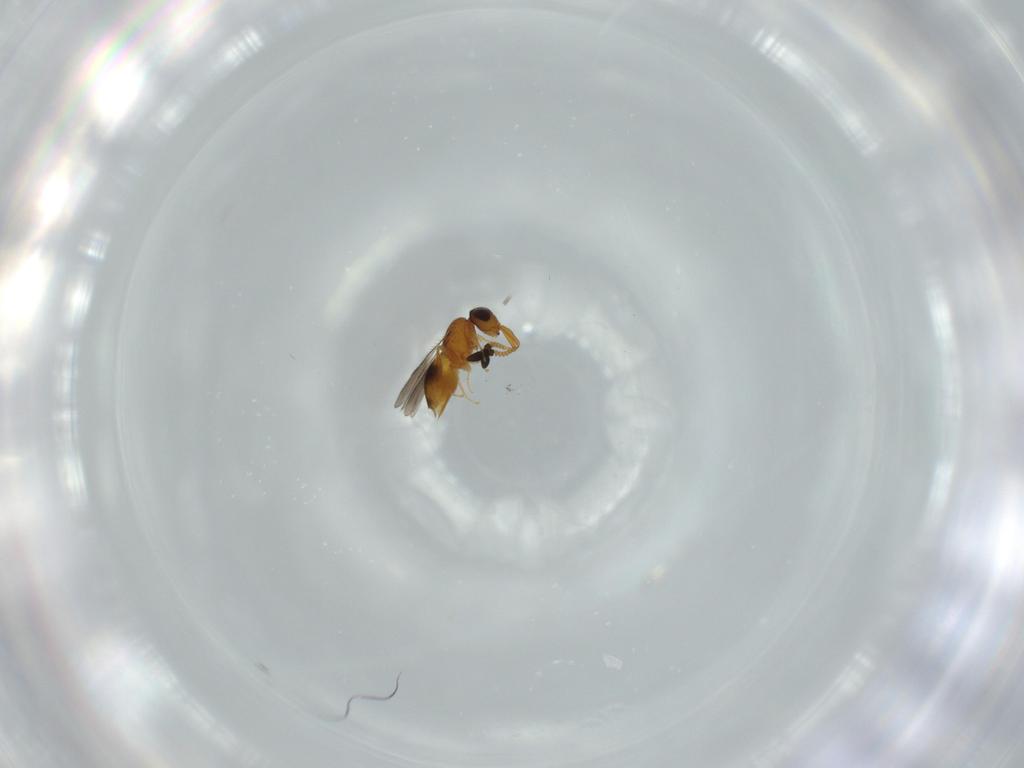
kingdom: Animalia
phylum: Arthropoda
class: Insecta
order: Hymenoptera
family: Ceraphronidae
